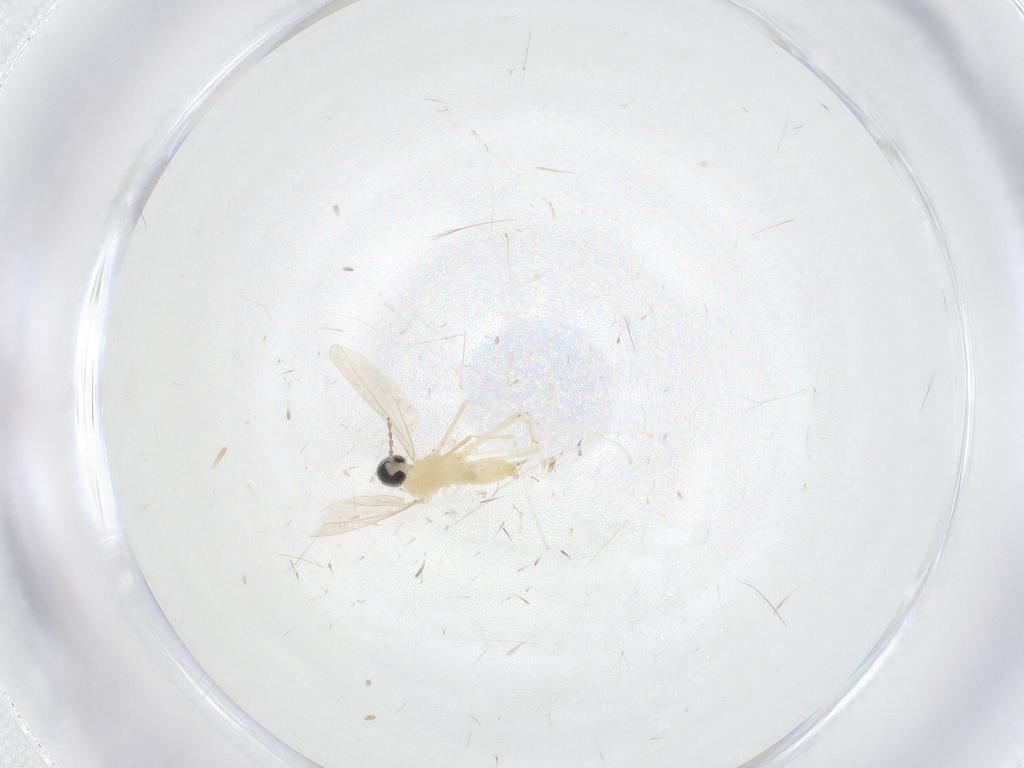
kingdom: Animalia
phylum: Arthropoda
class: Insecta
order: Diptera
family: Cecidomyiidae
